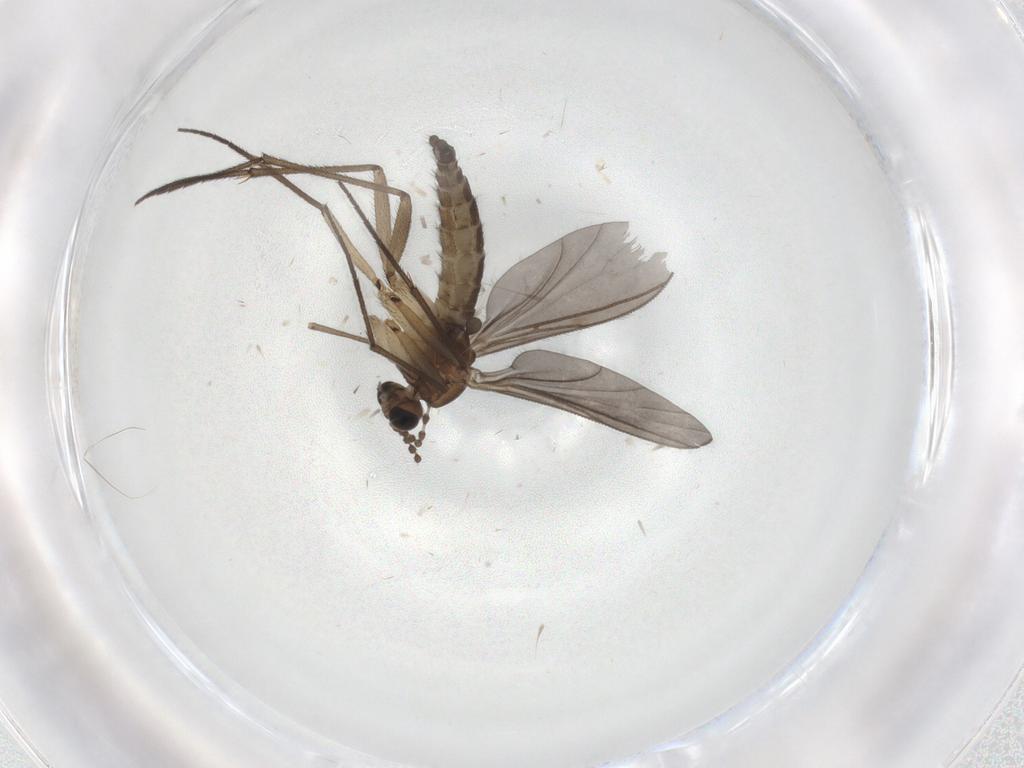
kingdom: Animalia
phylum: Arthropoda
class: Insecta
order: Diptera
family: Sciaridae
